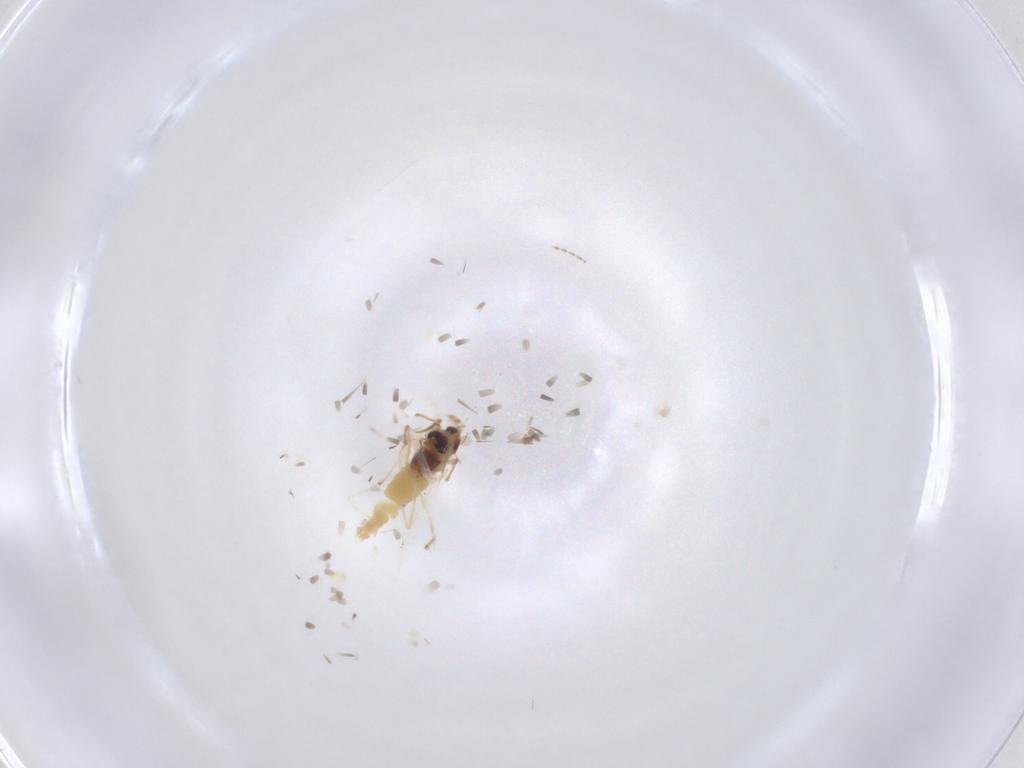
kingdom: Animalia
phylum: Arthropoda
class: Insecta
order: Diptera
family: Chironomidae
